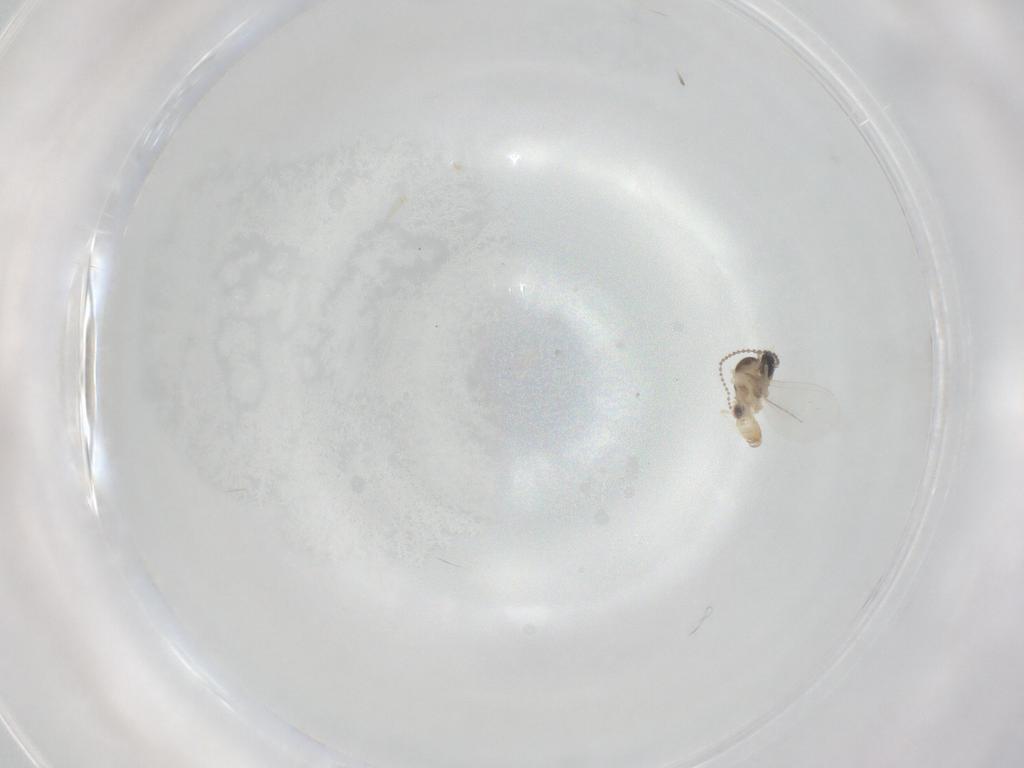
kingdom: Animalia
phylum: Arthropoda
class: Insecta
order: Diptera
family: Cecidomyiidae
